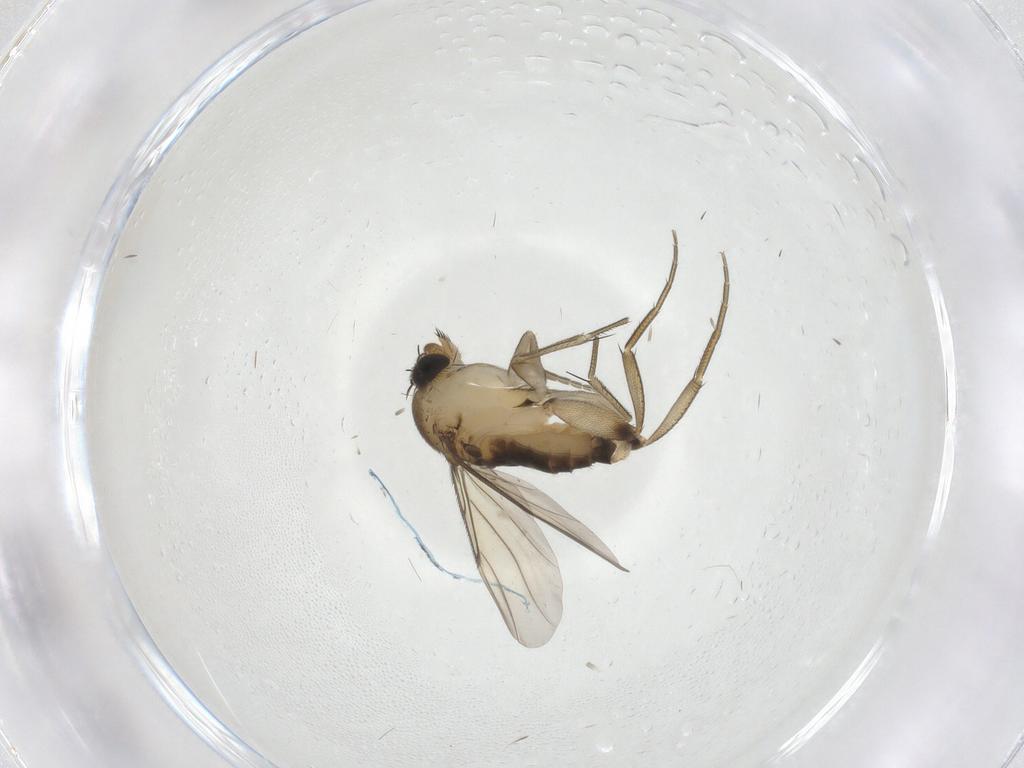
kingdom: Animalia
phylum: Arthropoda
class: Insecta
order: Diptera
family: Phoridae
